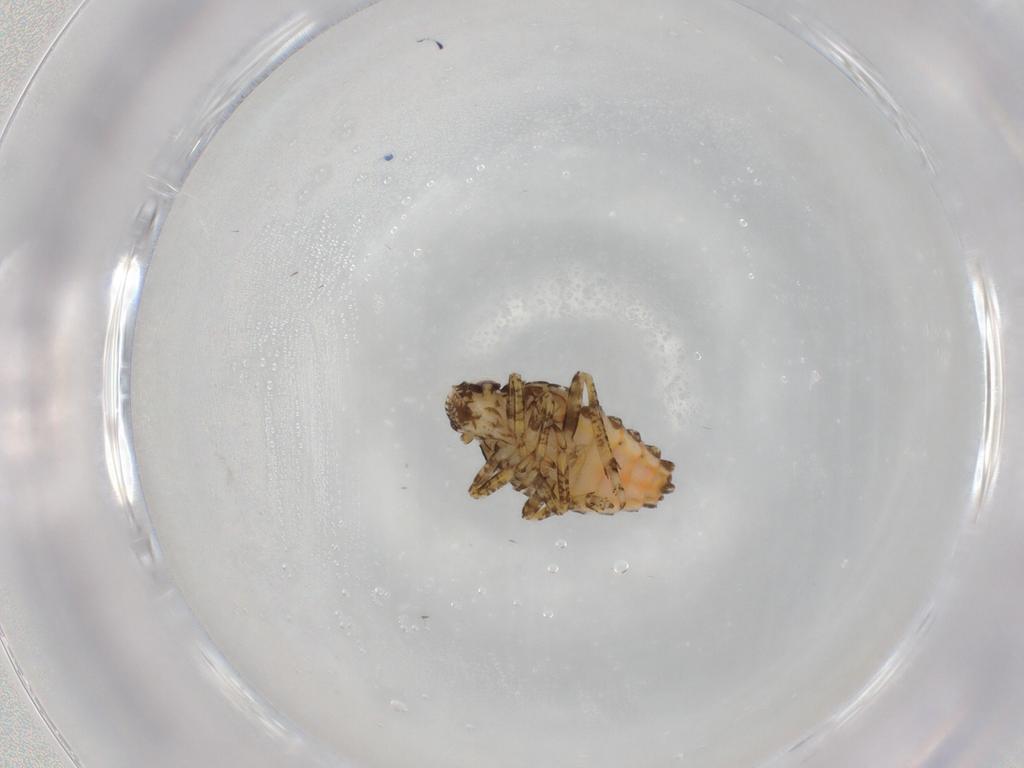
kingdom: Animalia
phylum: Arthropoda
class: Insecta
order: Hemiptera
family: Issidae
